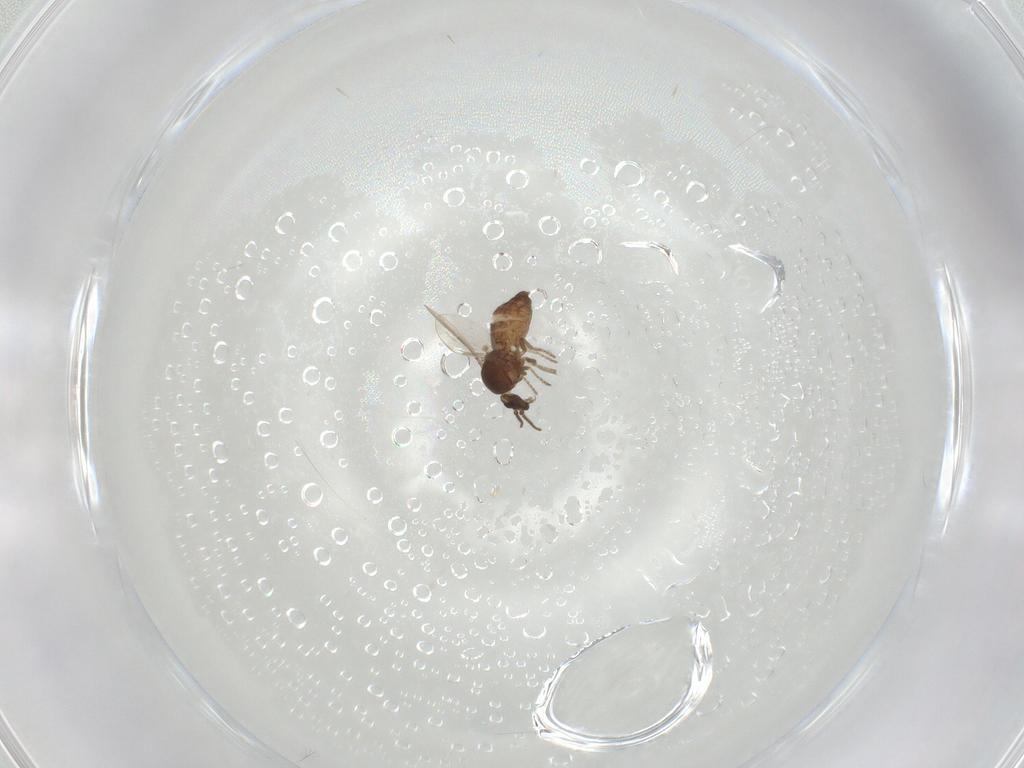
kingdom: Animalia
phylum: Arthropoda
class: Insecta
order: Diptera
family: Ceratopogonidae
